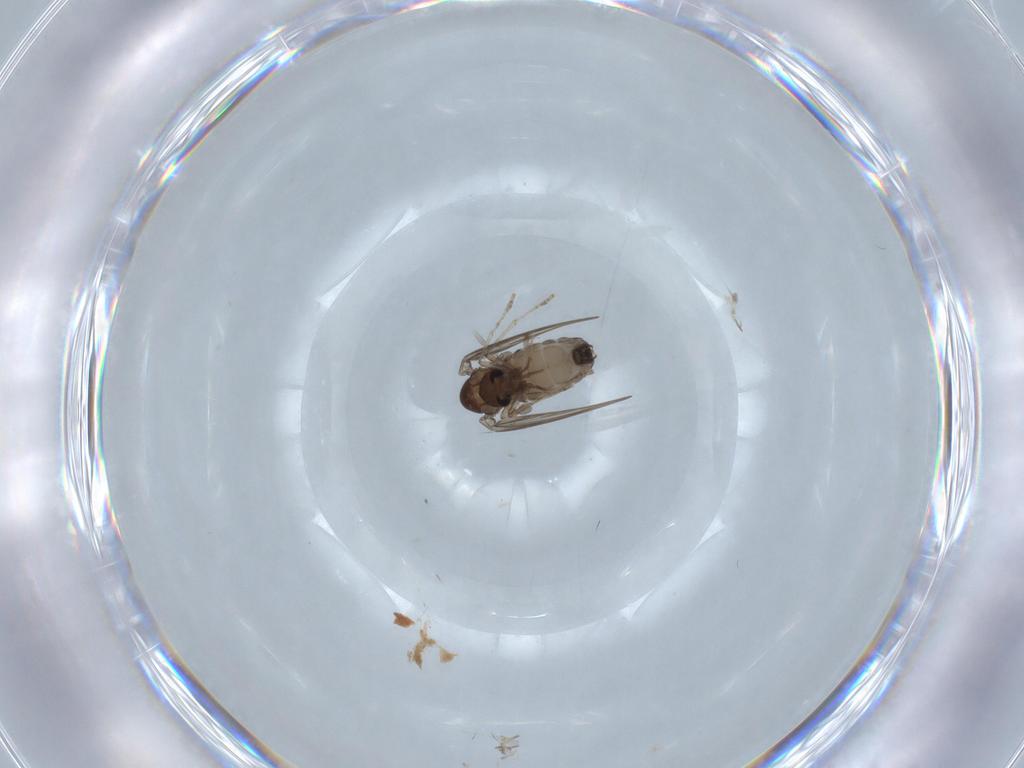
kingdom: Animalia
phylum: Arthropoda
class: Insecta
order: Diptera
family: Psychodidae
